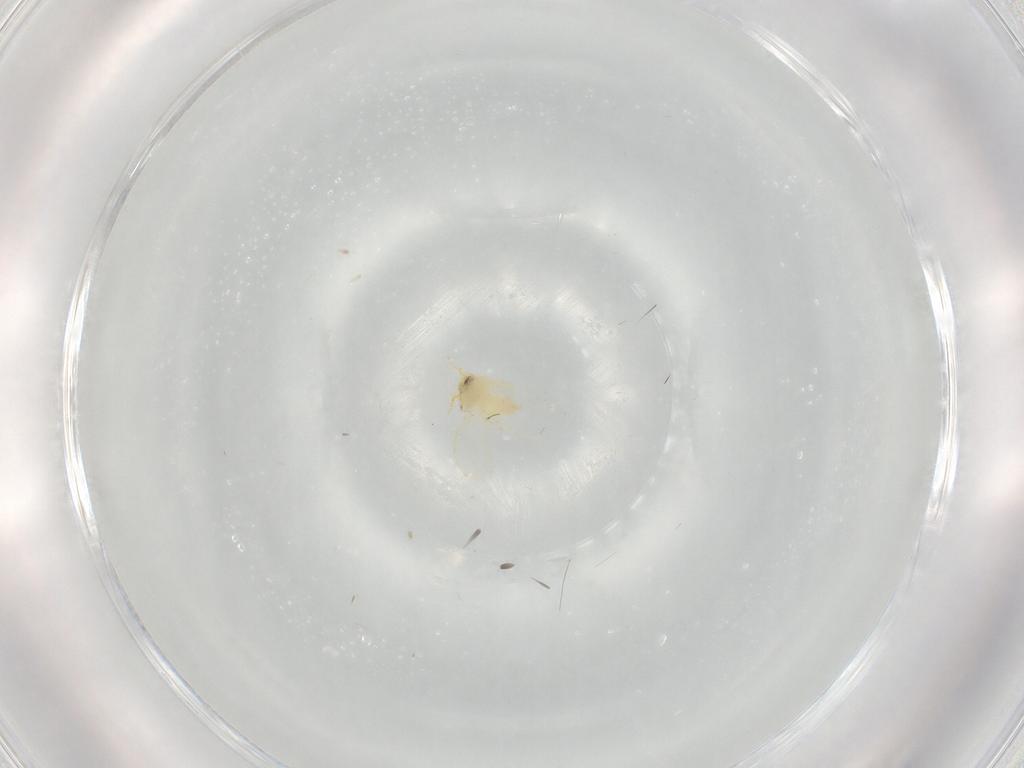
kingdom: Animalia
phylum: Arthropoda
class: Insecta
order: Hemiptera
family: Aleyrodidae
